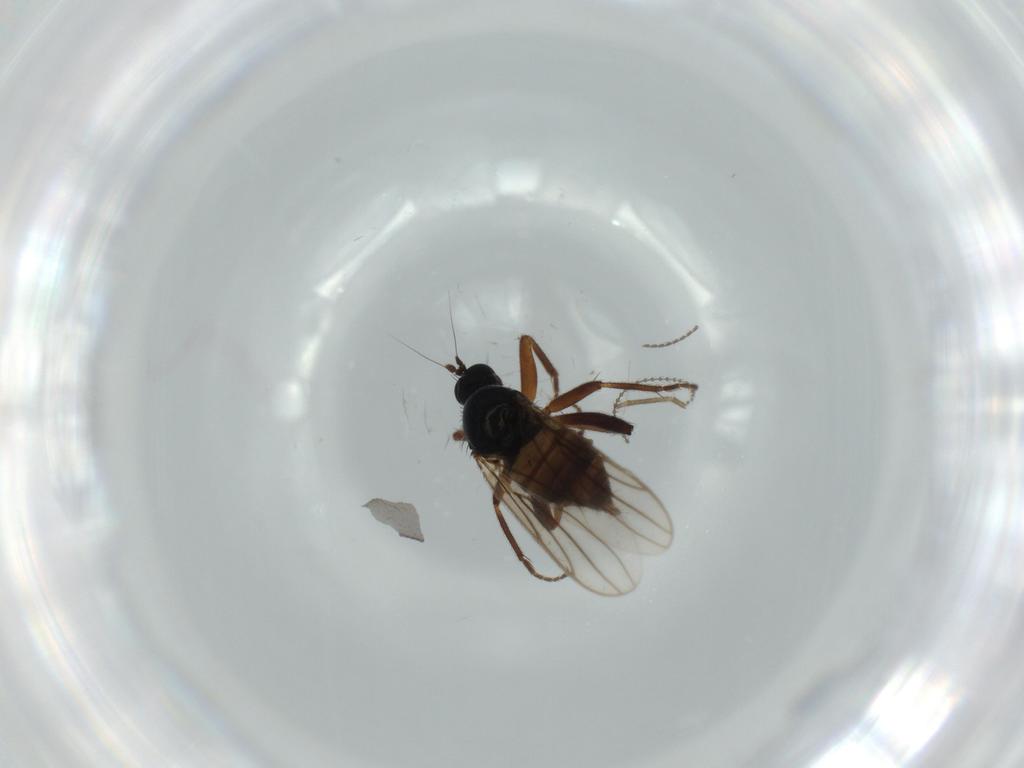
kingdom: Animalia
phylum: Arthropoda
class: Insecta
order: Diptera
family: Hybotidae
